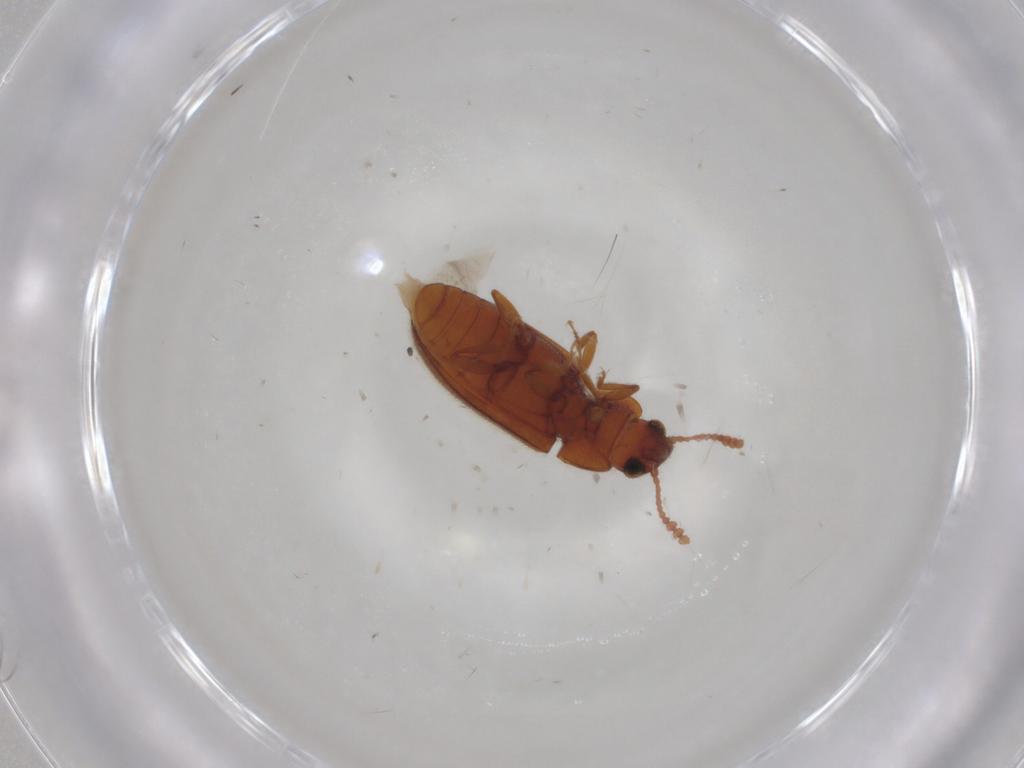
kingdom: Animalia
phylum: Arthropoda
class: Insecta
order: Coleoptera
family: Erotylidae
